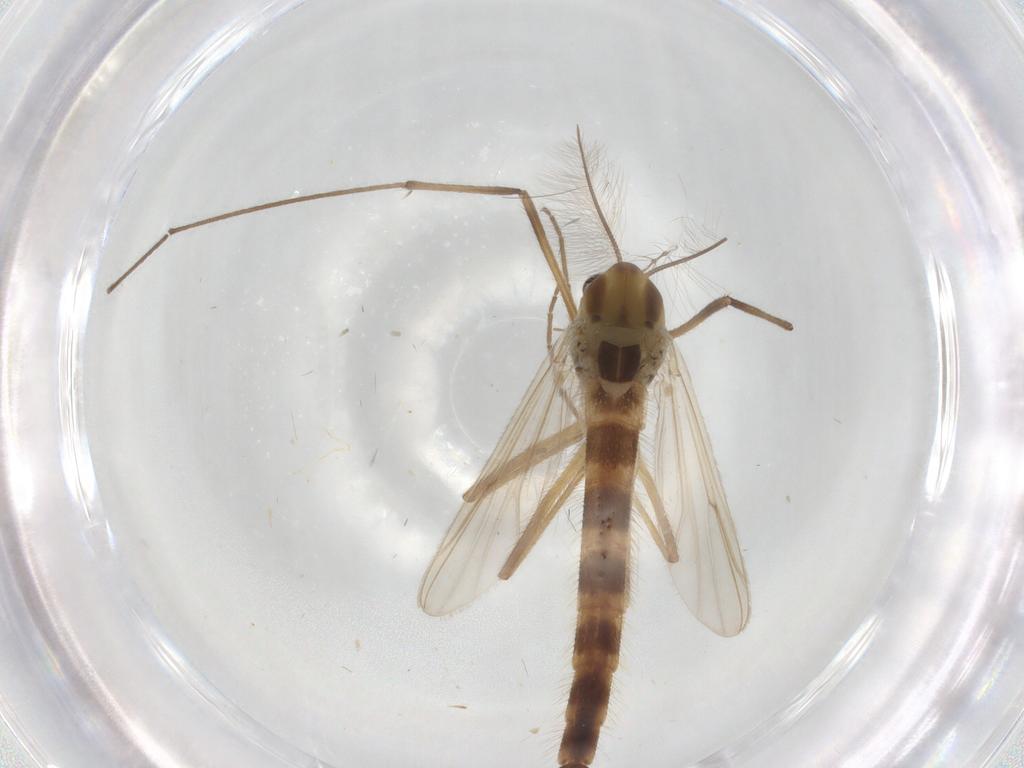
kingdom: Animalia
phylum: Arthropoda
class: Insecta
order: Diptera
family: Chironomidae
